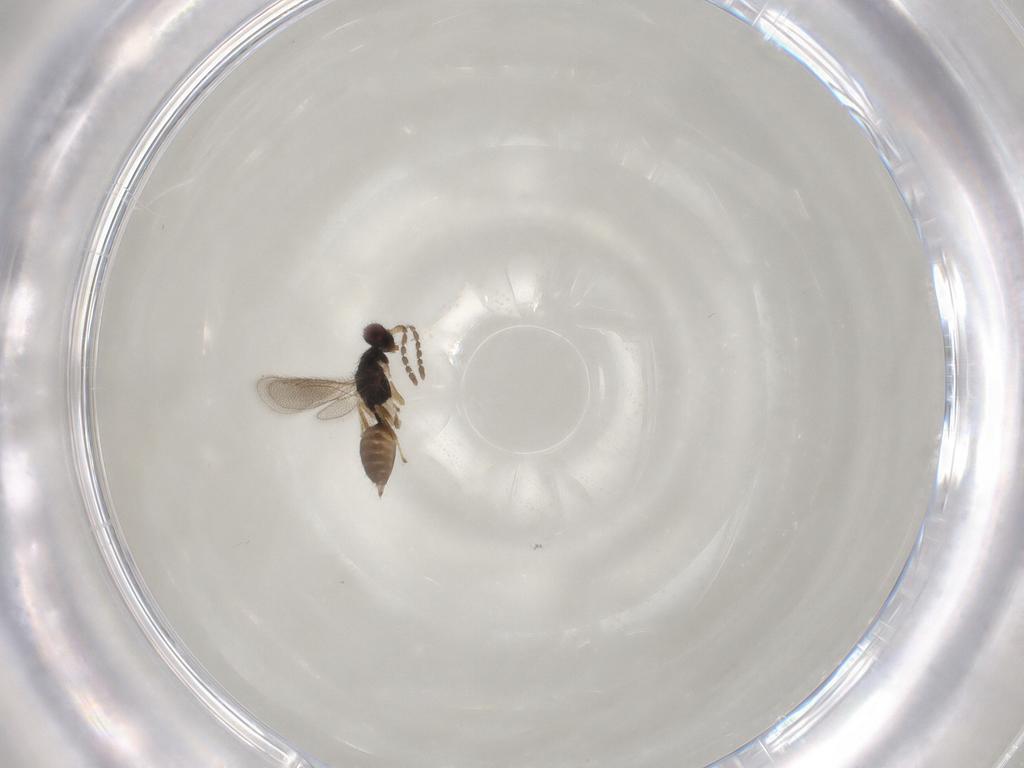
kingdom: Animalia
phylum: Arthropoda
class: Insecta
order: Hymenoptera
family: Eulophidae
